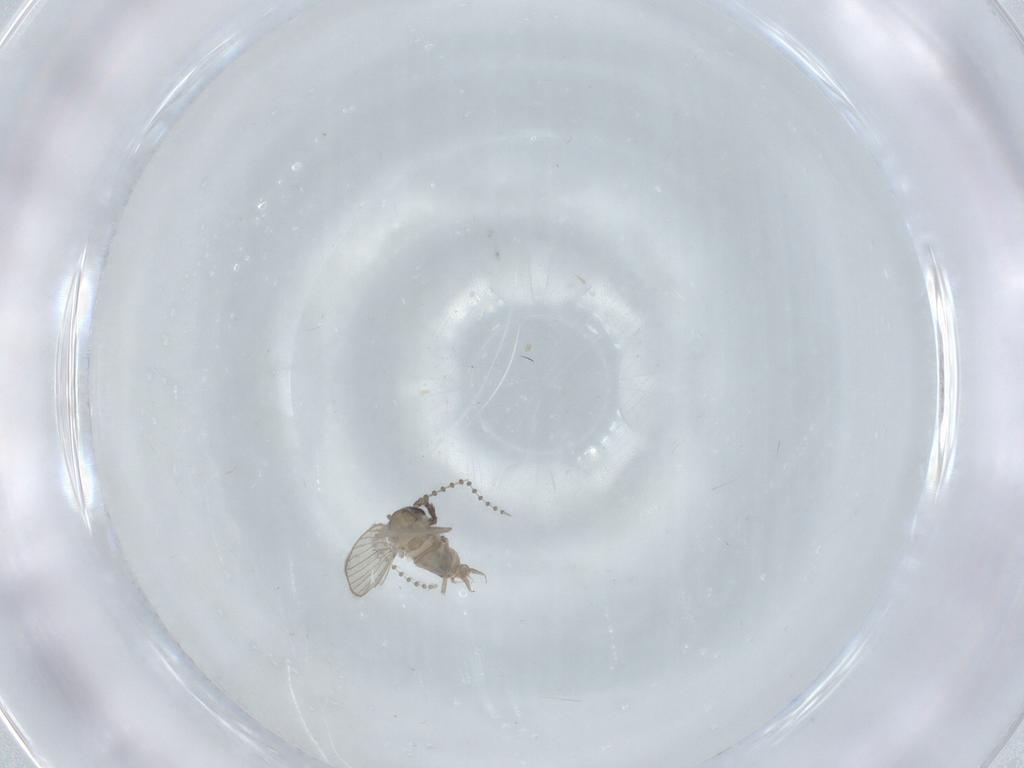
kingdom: Animalia
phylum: Arthropoda
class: Insecta
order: Diptera
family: Psychodidae
